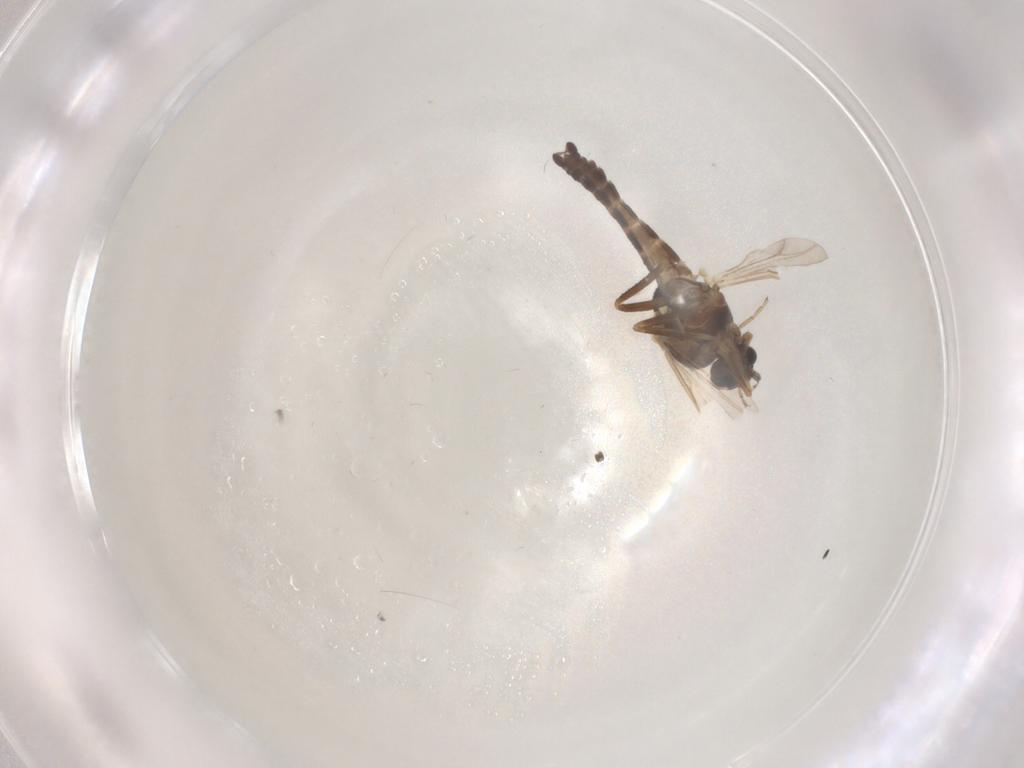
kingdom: Animalia
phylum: Arthropoda
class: Insecta
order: Diptera
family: Ceratopogonidae
